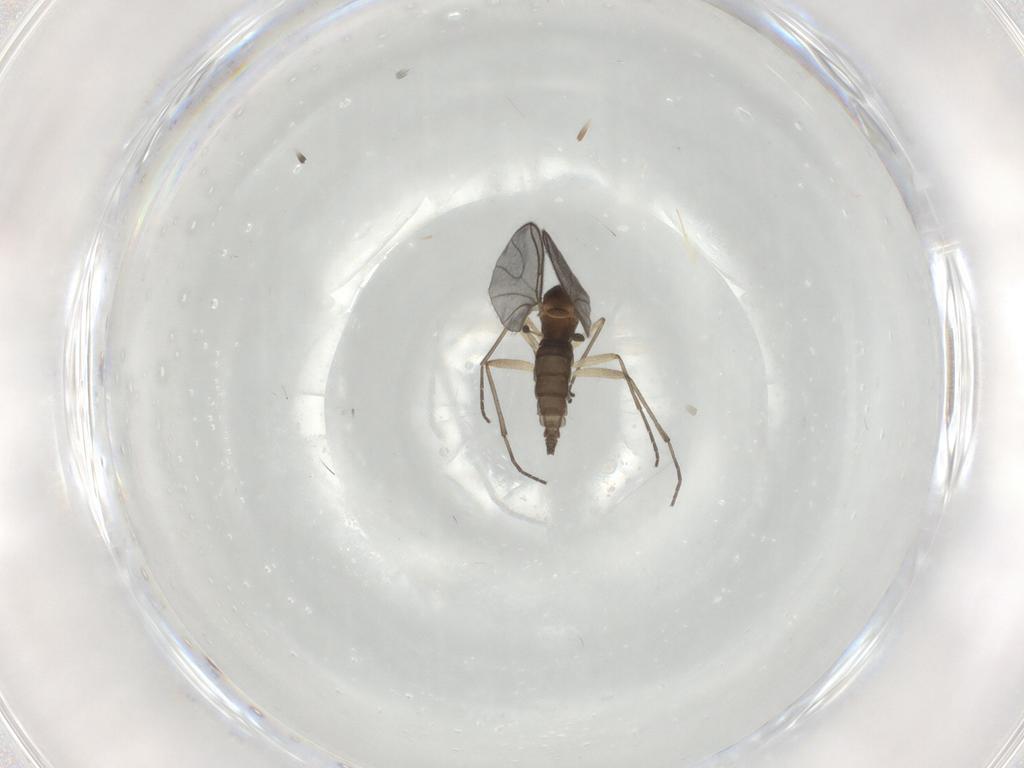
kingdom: Animalia
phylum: Arthropoda
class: Insecta
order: Diptera
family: Sciaridae
